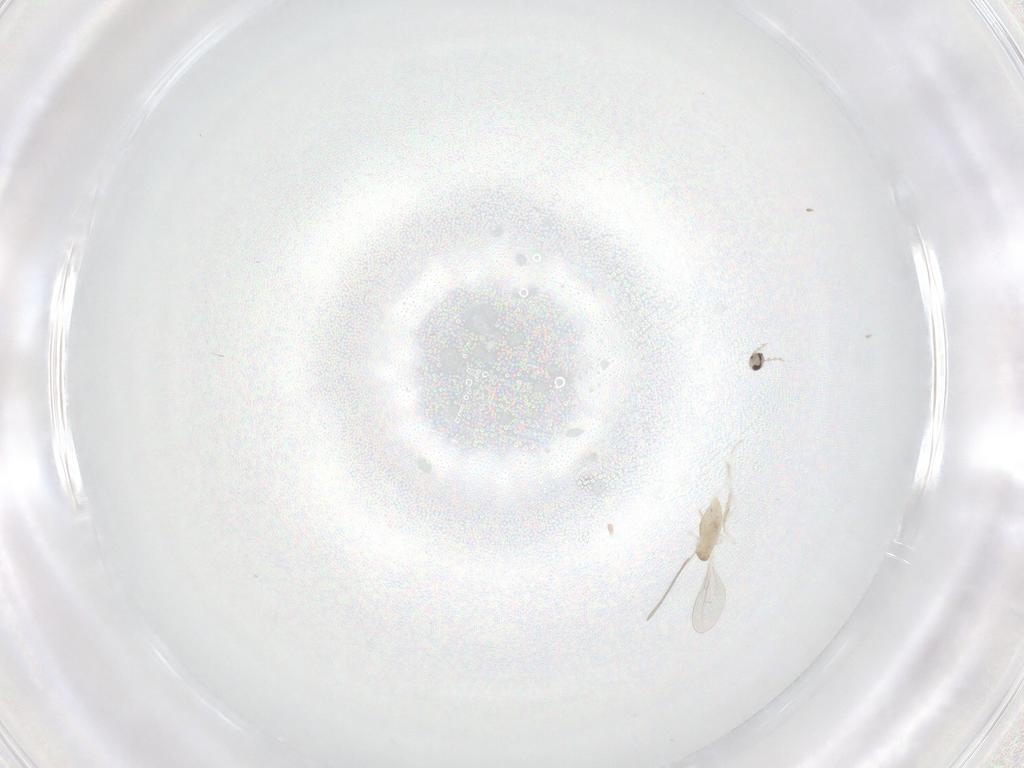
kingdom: Animalia
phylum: Arthropoda
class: Insecta
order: Diptera
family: Cecidomyiidae
